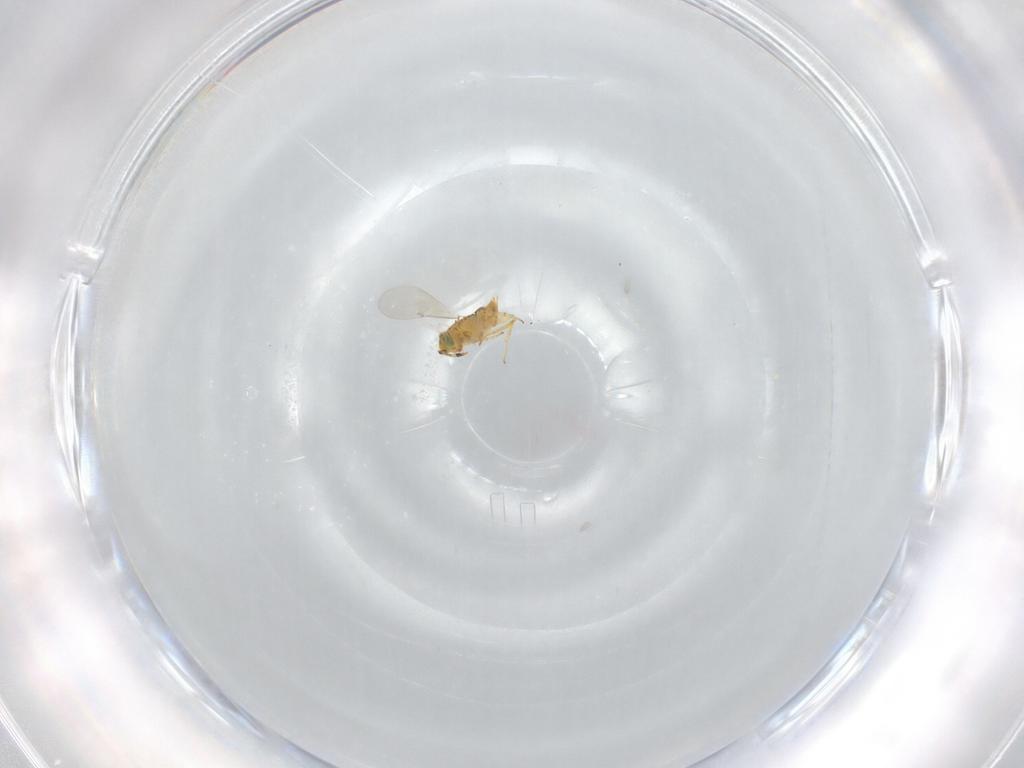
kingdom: Animalia
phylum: Arthropoda
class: Insecta
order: Hymenoptera
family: Encyrtidae
